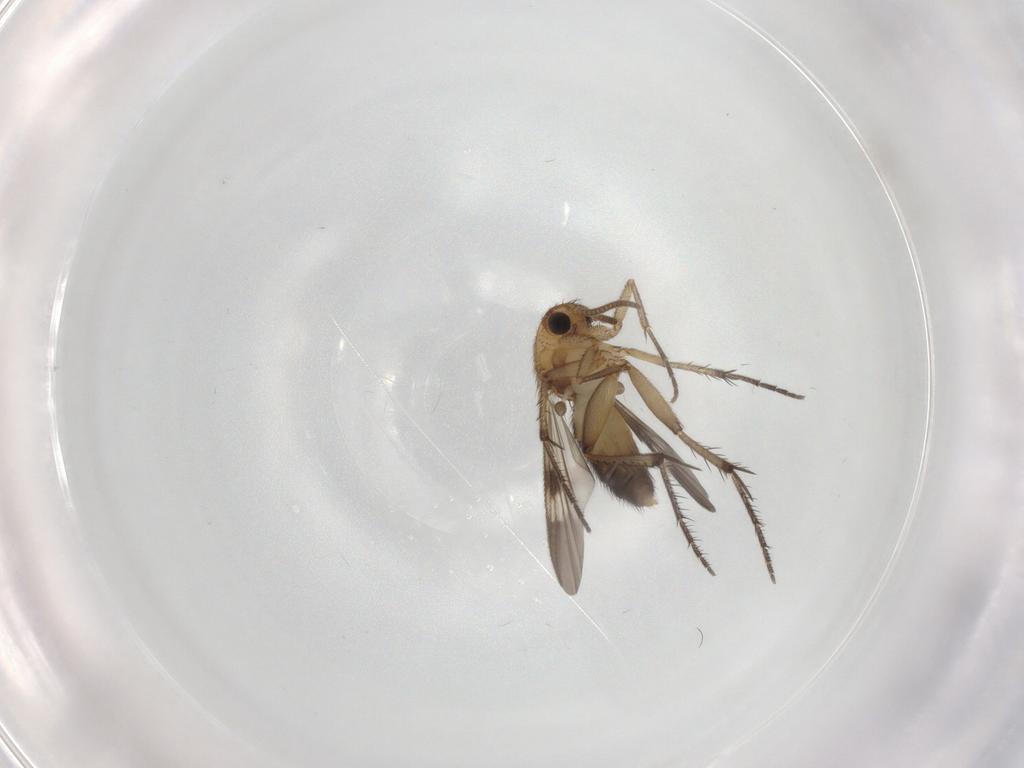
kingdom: Animalia
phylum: Arthropoda
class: Insecta
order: Diptera
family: Mycetophilidae
